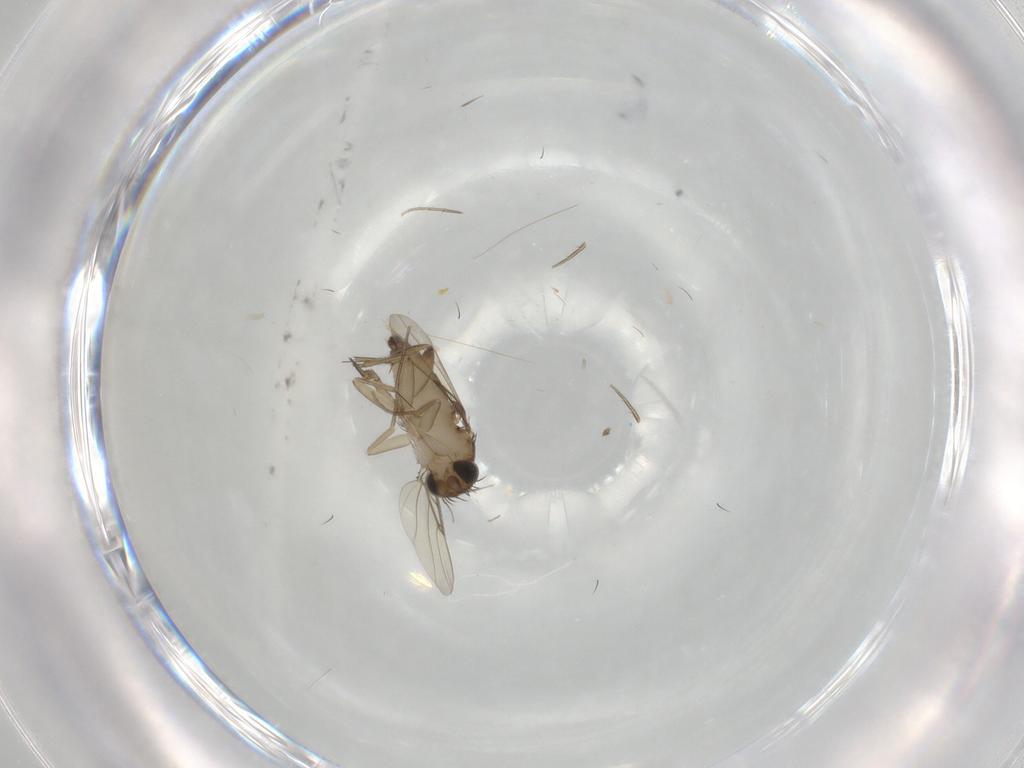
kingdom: Animalia
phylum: Arthropoda
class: Insecta
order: Diptera
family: Phoridae
